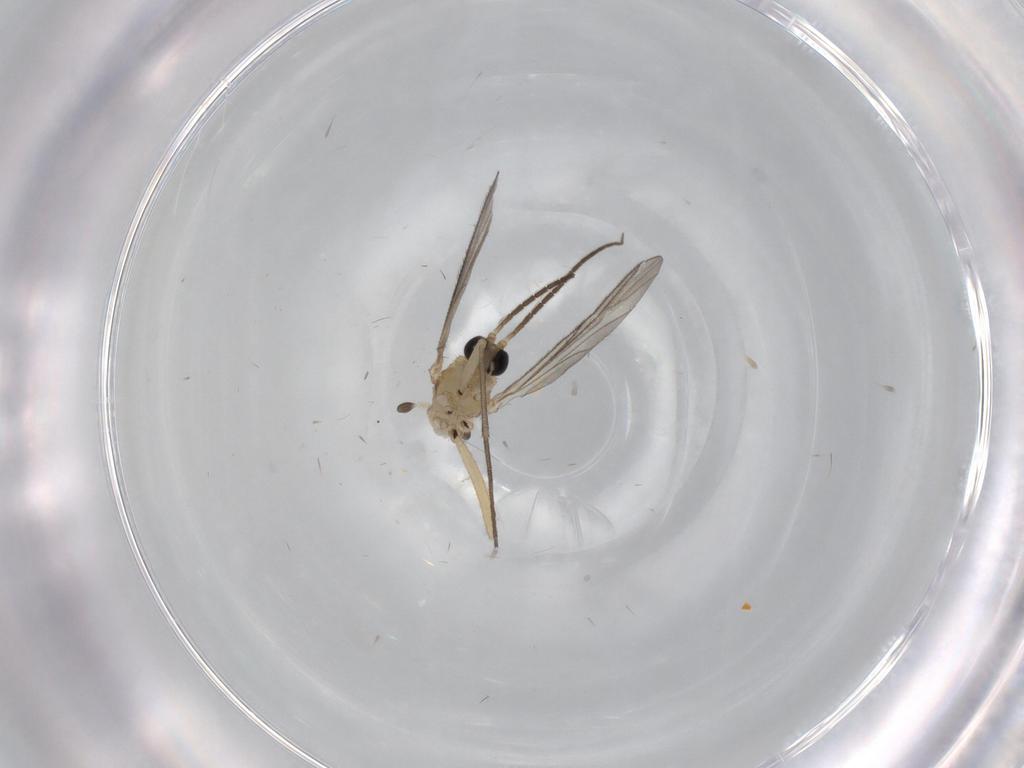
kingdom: Animalia
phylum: Arthropoda
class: Insecta
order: Diptera
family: Sciaridae
